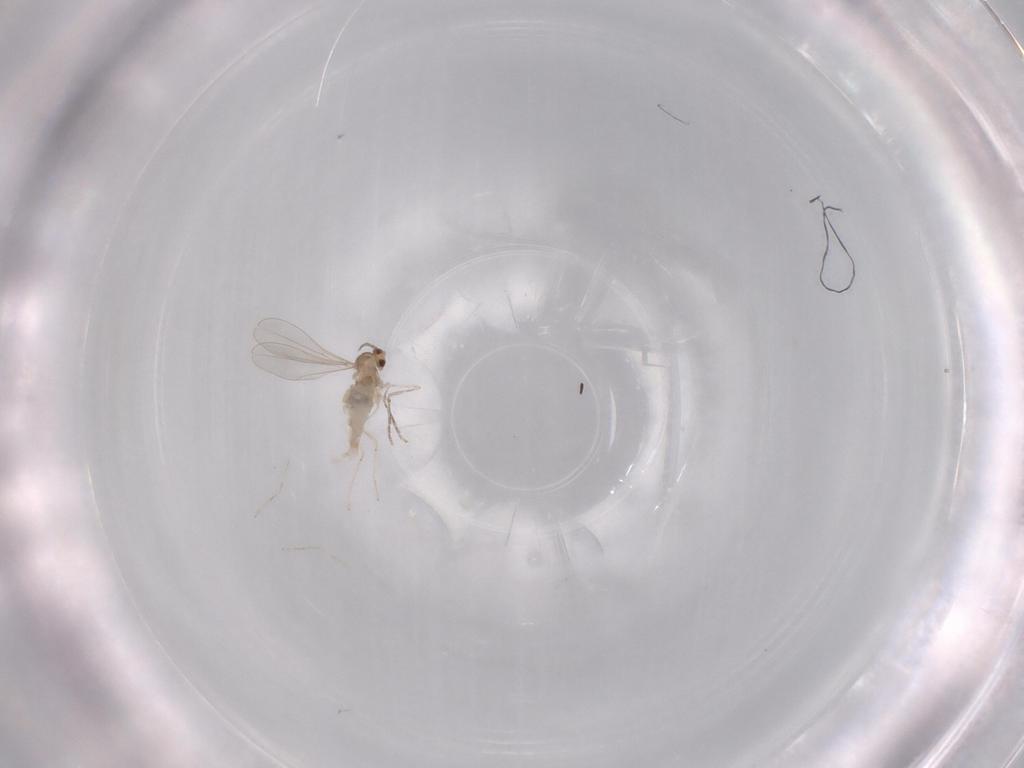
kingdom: Animalia
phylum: Arthropoda
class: Insecta
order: Diptera
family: Cecidomyiidae
